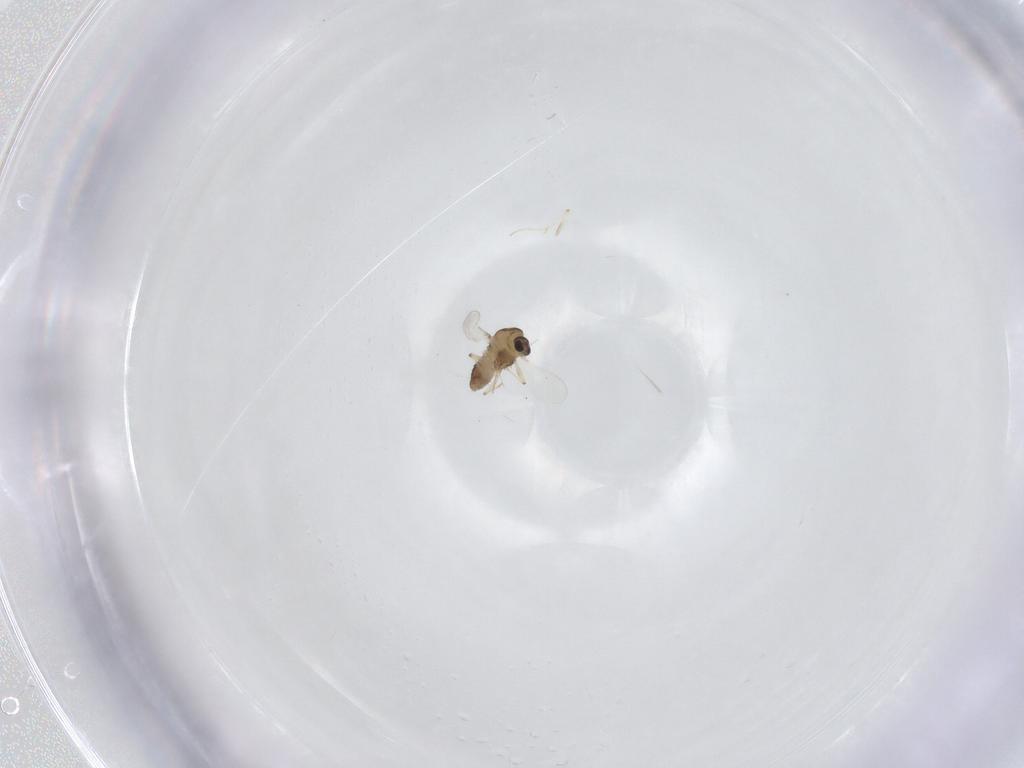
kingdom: Animalia
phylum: Arthropoda
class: Insecta
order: Diptera
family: Chironomidae
